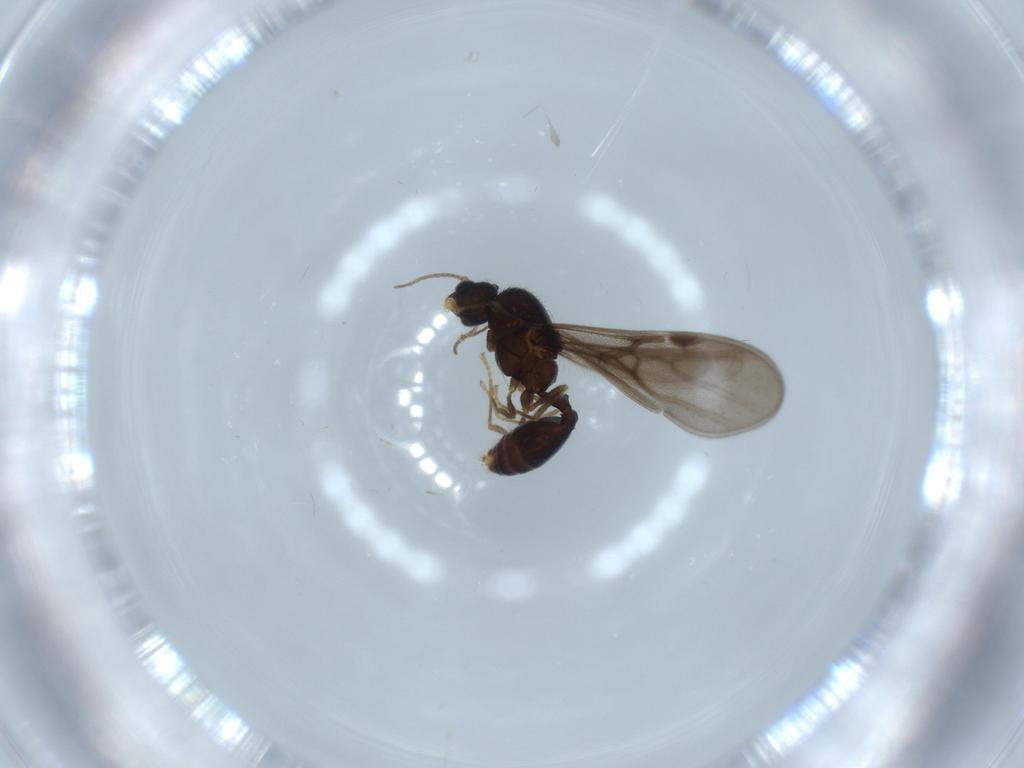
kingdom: Animalia
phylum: Arthropoda
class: Insecta
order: Hymenoptera
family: Formicidae
